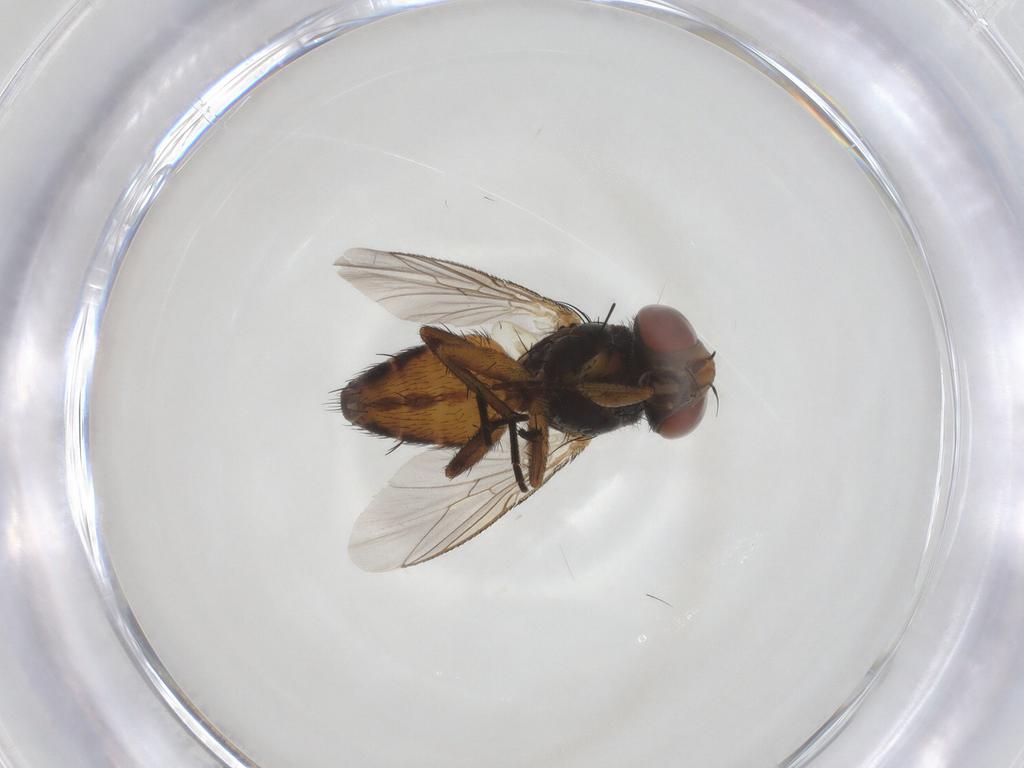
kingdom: Animalia
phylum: Arthropoda
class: Insecta
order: Diptera
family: Sarcophagidae
